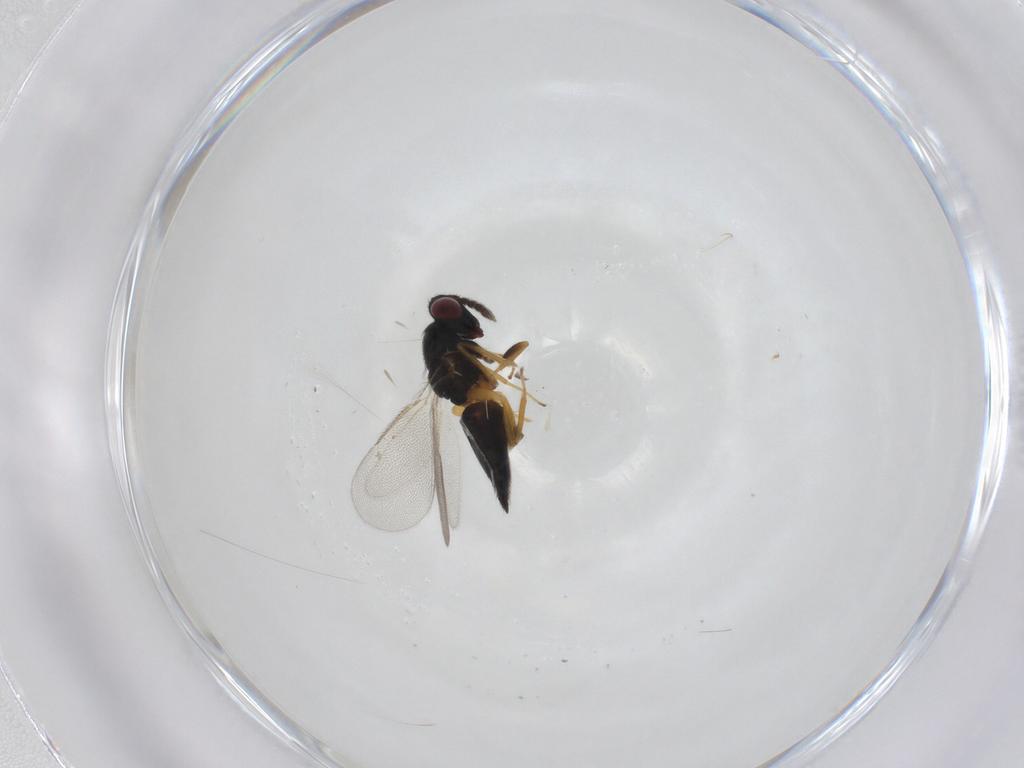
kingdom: Animalia
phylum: Arthropoda
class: Insecta
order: Hymenoptera
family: Eulophidae
